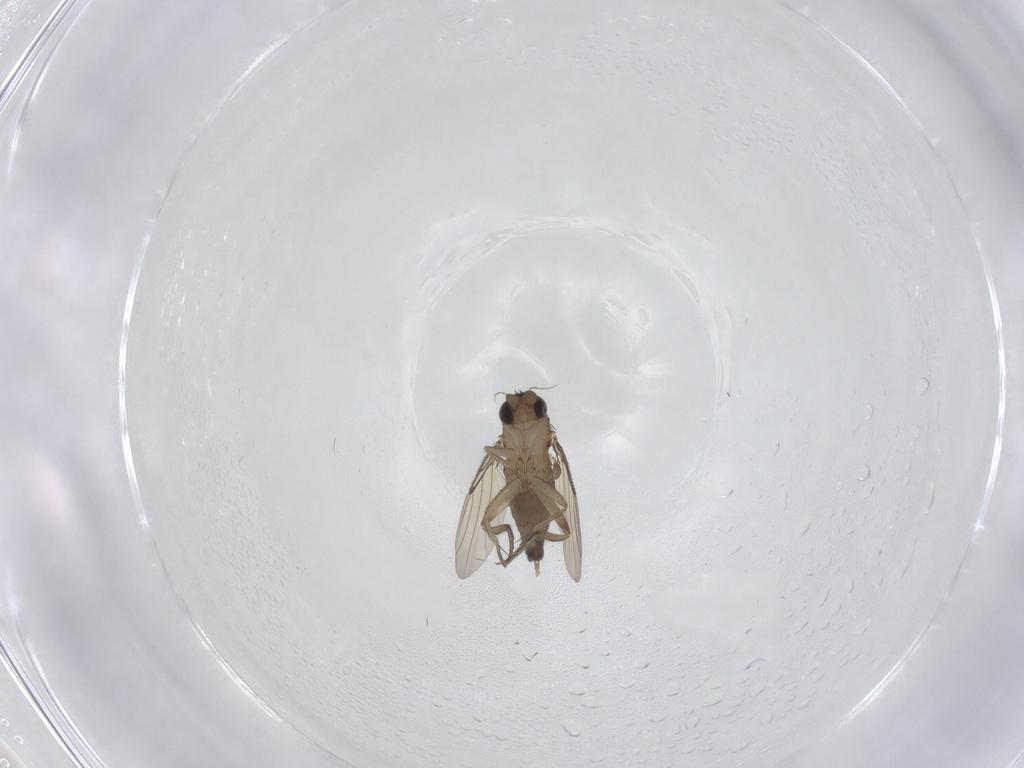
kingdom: Animalia
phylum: Arthropoda
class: Insecta
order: Diptera
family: Phoridae
